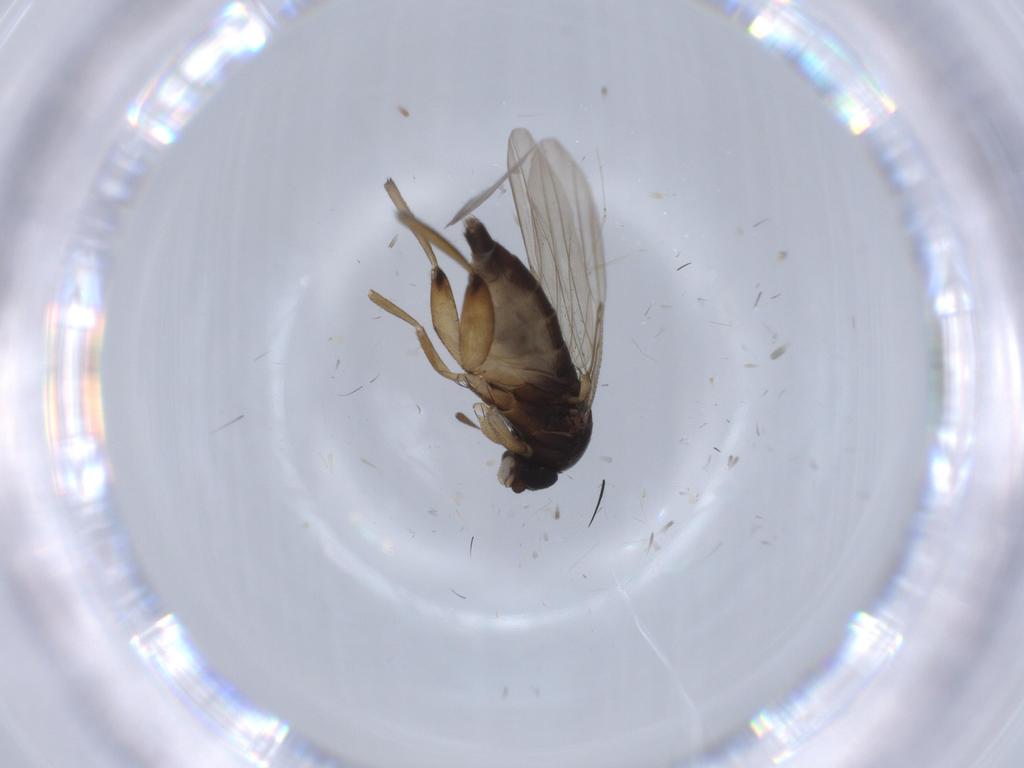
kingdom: Animalia
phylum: Arthropoda
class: Insecta
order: Diptera
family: Phoridae
